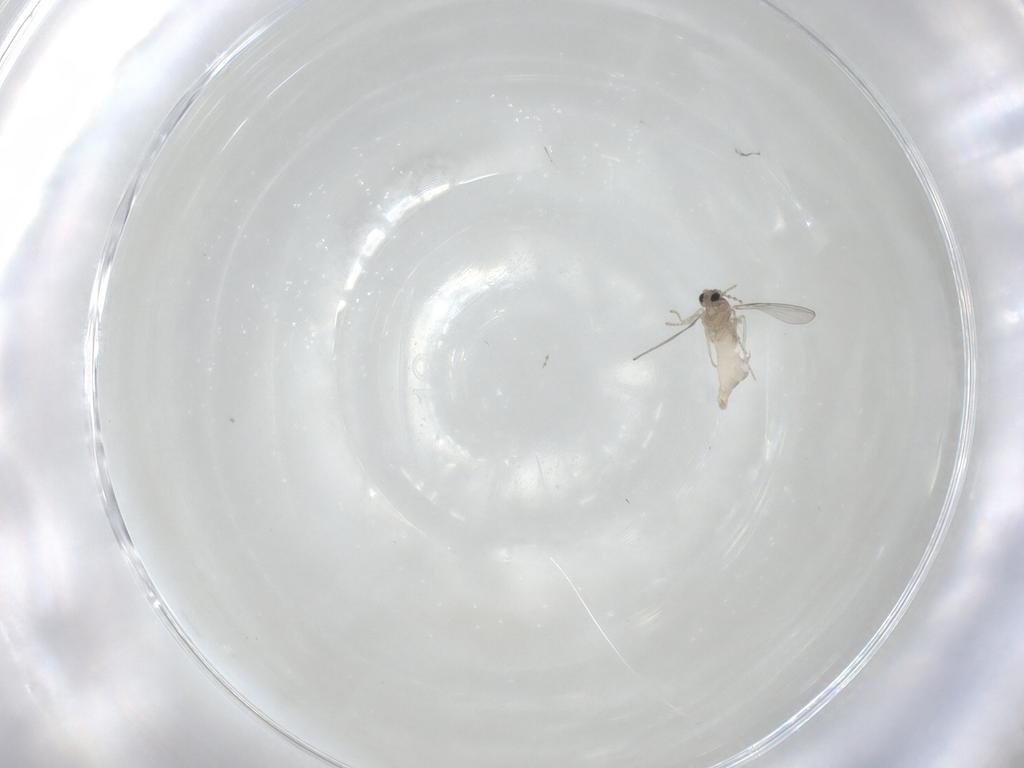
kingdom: Animalia
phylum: Arthropoda
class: Insecta
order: Diptera
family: Cecidomyiidae
